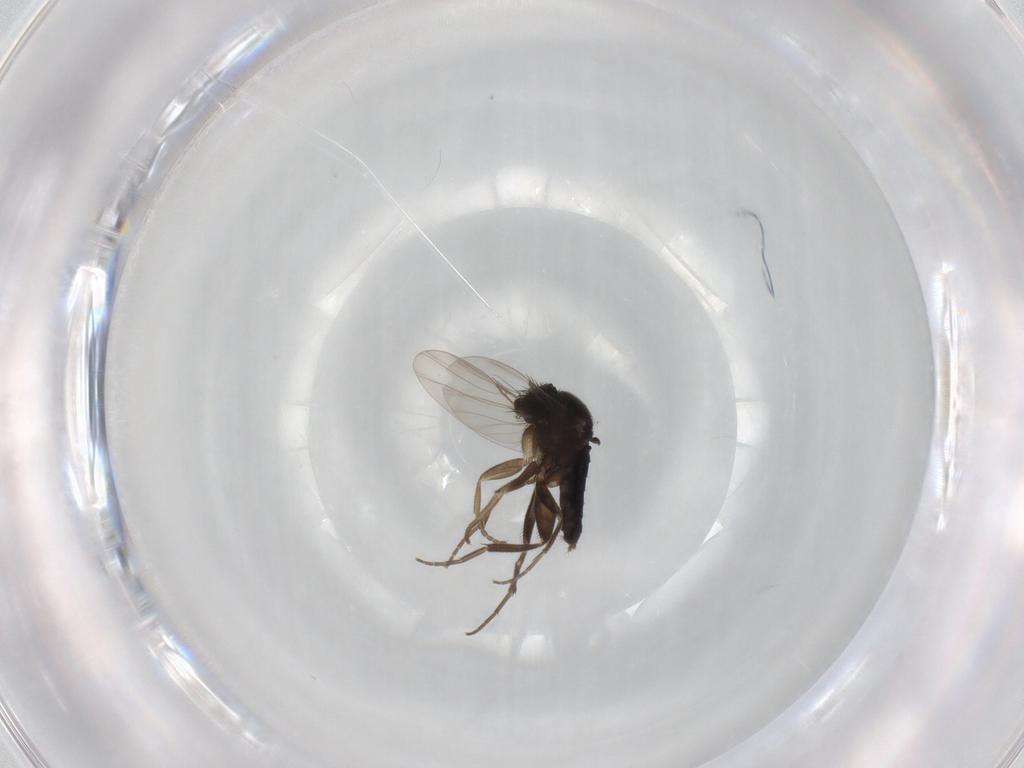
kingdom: Animalia
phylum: Arthropoda
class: Insecta
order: Diptera
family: Phoridae
